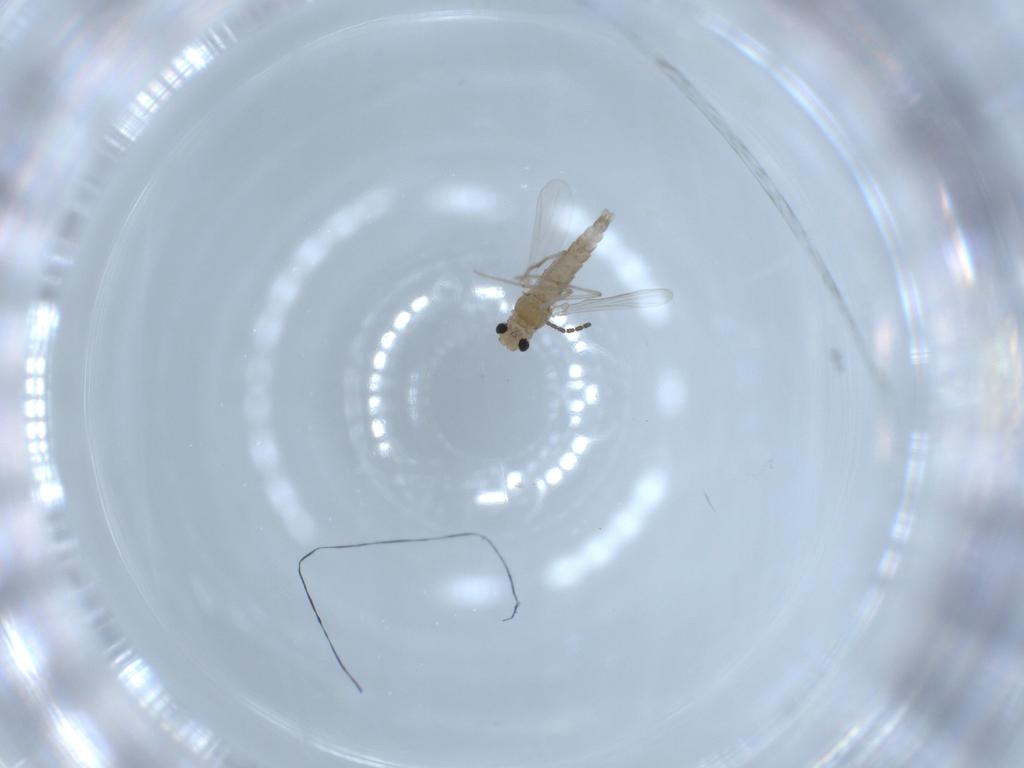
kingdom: Animalia
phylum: Arthropoda
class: Insecta
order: Diptera
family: Chironomidae
